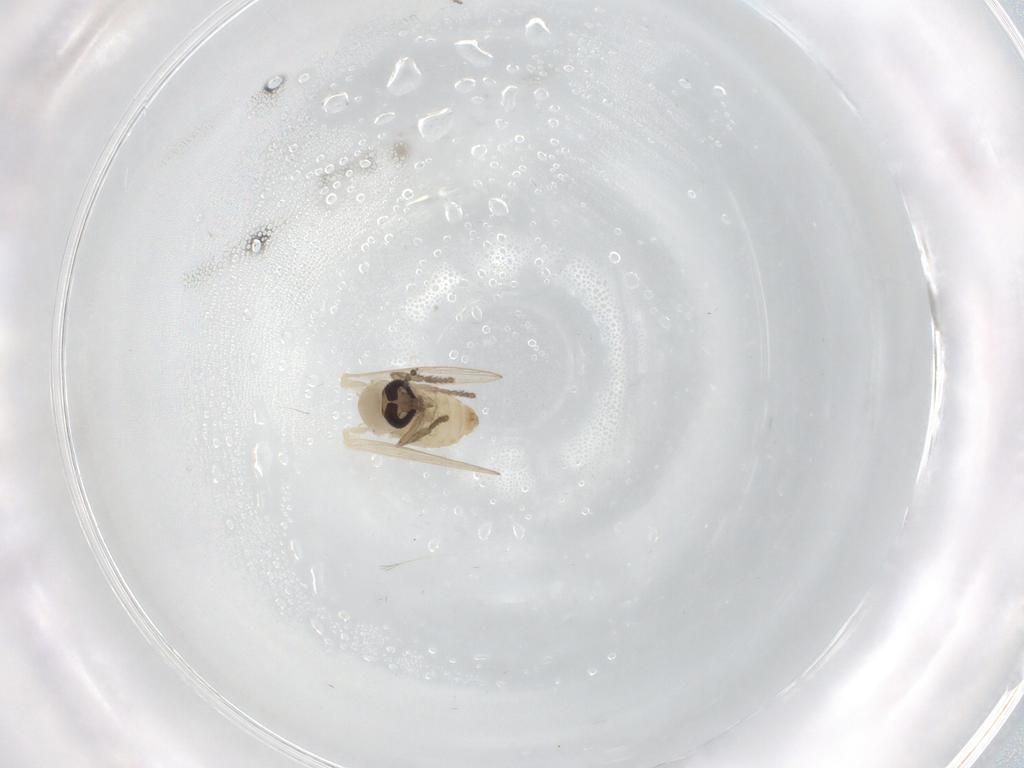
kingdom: Animalia
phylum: Arthropoda
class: Insecta
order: Diptera
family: Psychodidae
